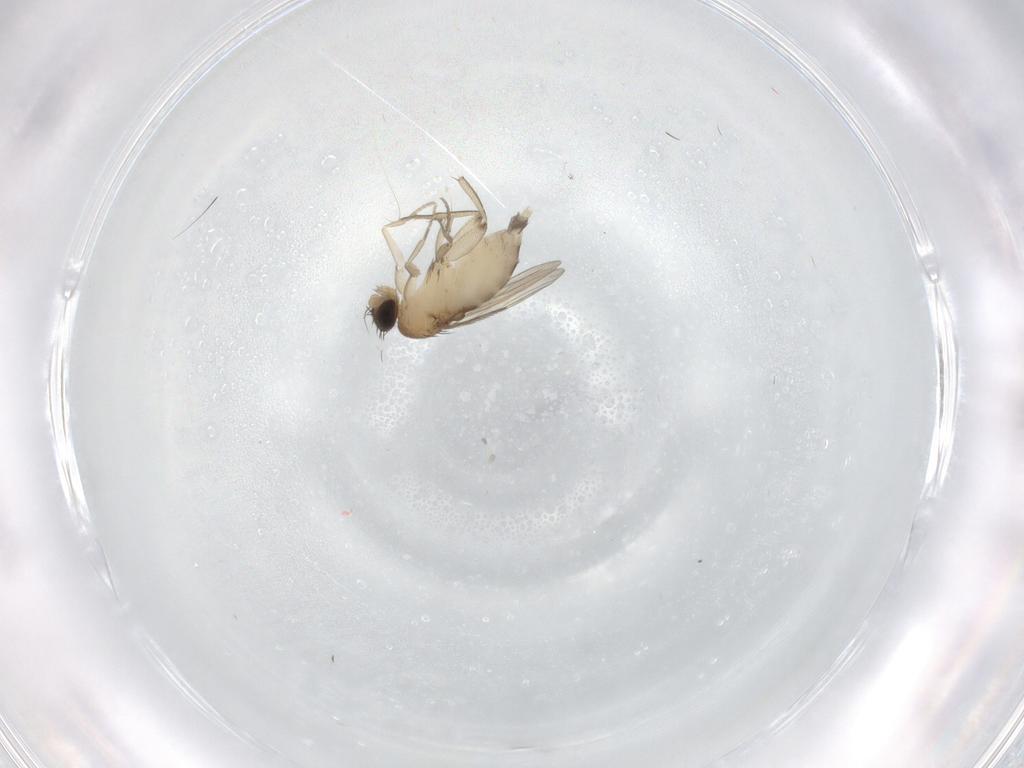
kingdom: Animalia
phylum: Arthropoda
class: Insecta
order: Diptera
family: Phoridae
